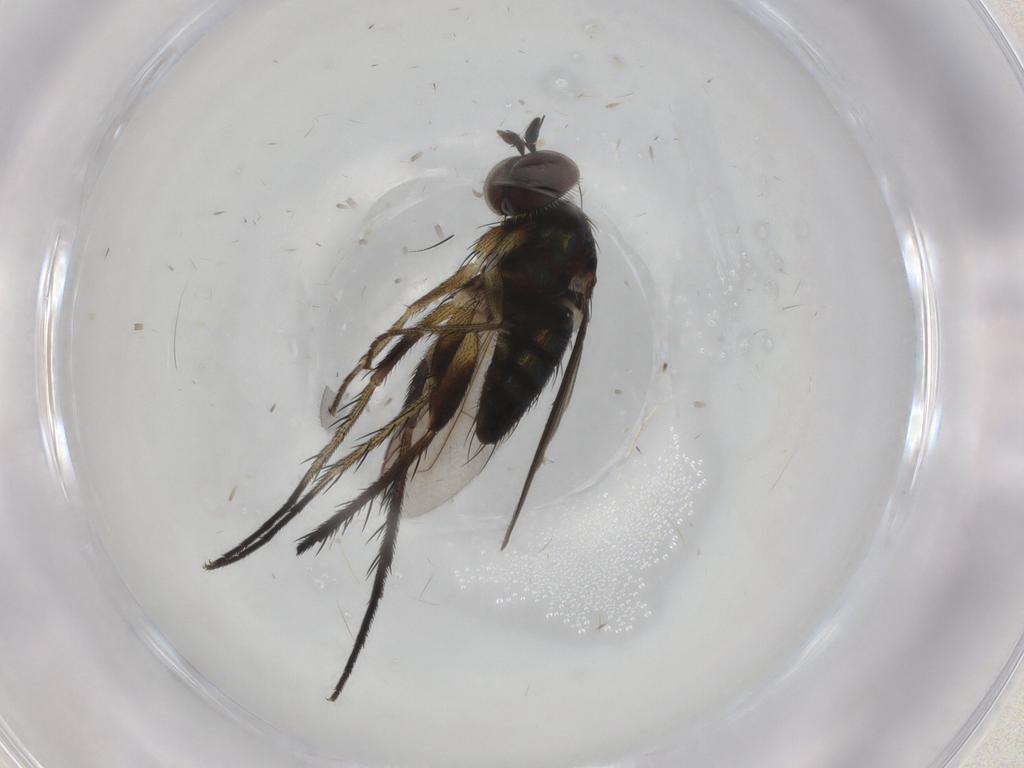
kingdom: Animalia
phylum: Arthropoda
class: Insecta
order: Diptera
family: Dolichopodidae
